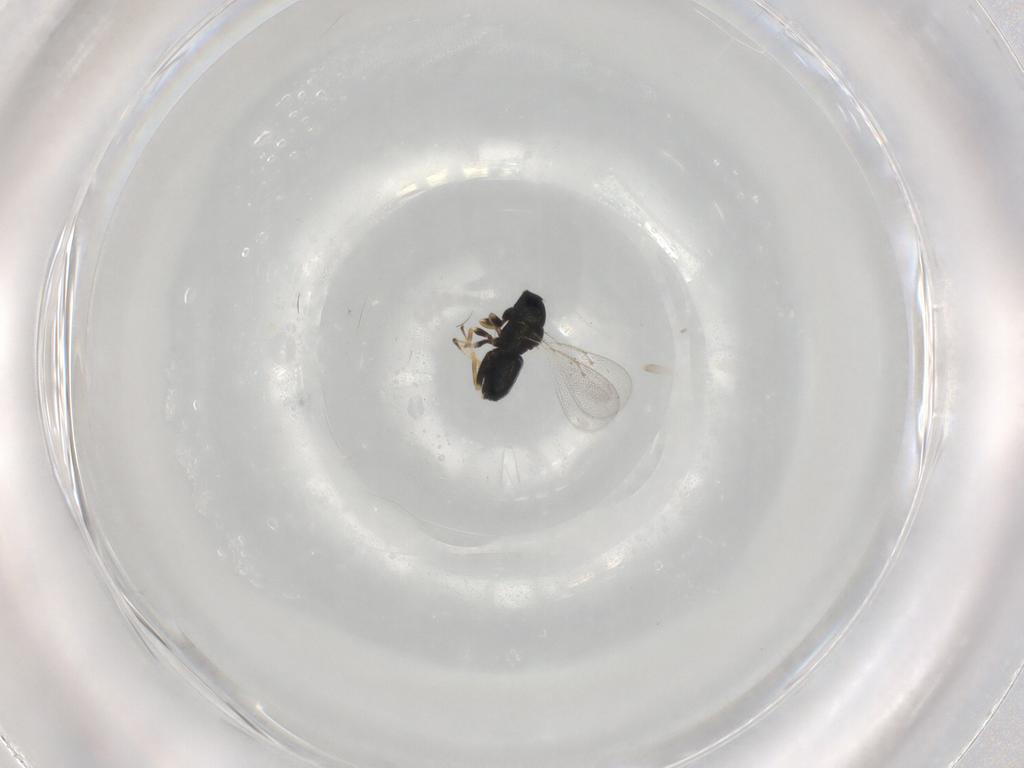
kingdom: Animalia
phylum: Arthropoda
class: Insecta
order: Hymenoptera
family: Eulophidae
